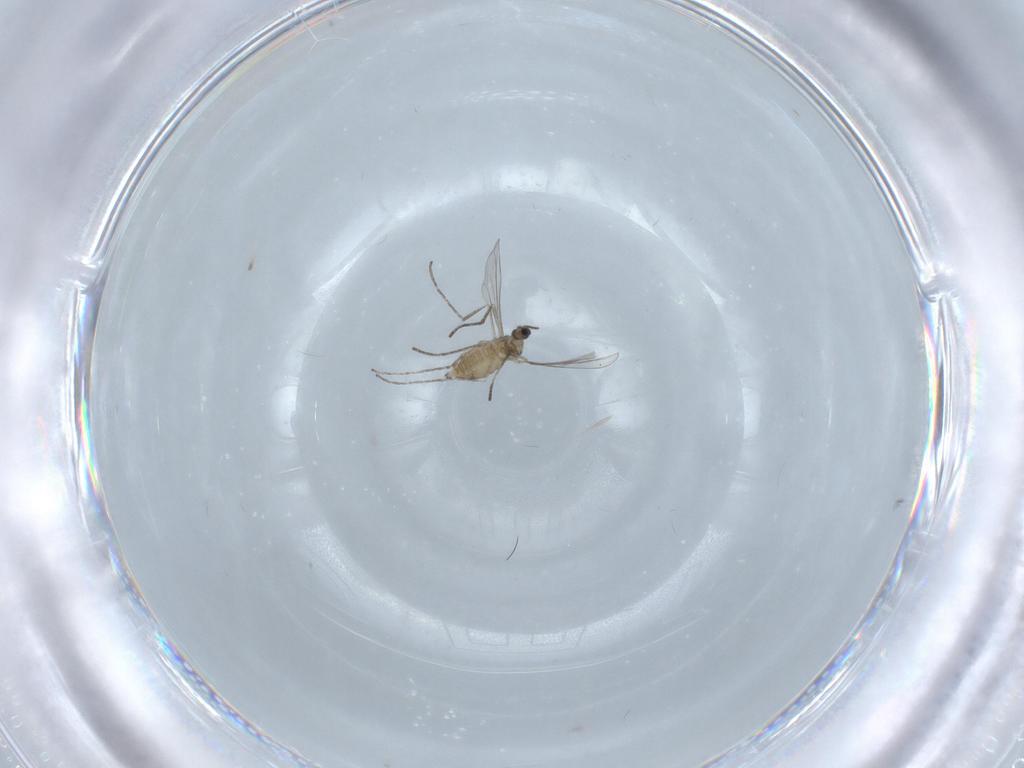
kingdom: Animalia
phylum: Arthropoda
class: Insecta
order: Diptera
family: Cecidomyiidae
